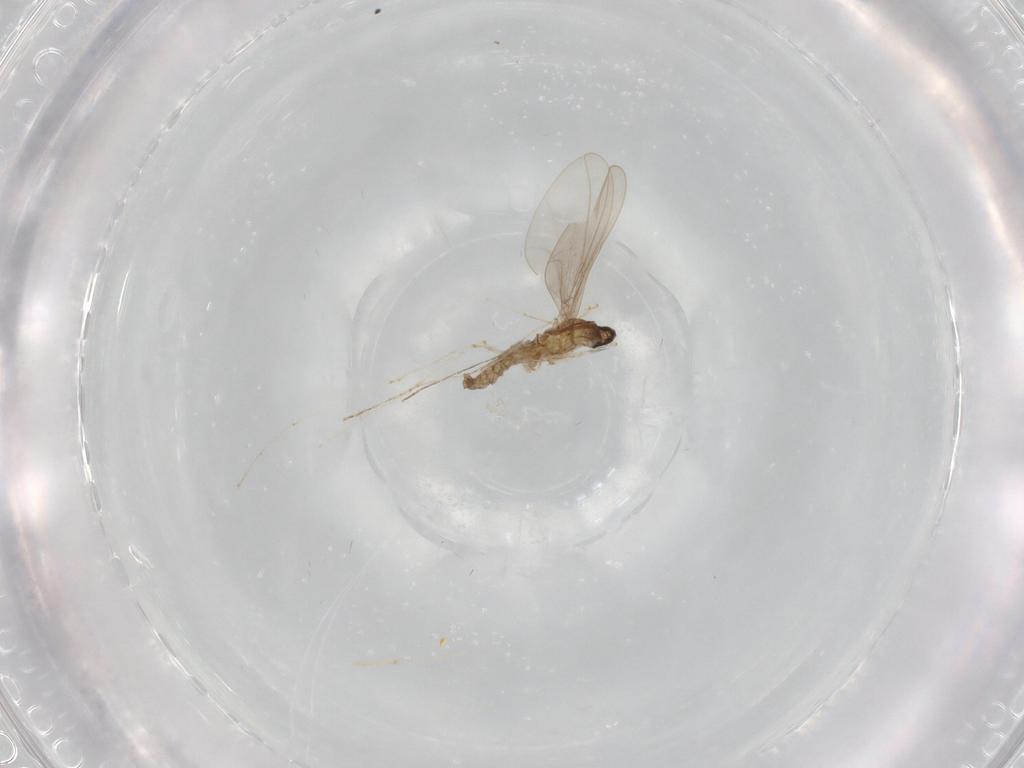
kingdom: Animalia
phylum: Arthropoda
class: Insecta
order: Diptera
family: Cecidomyiidae
